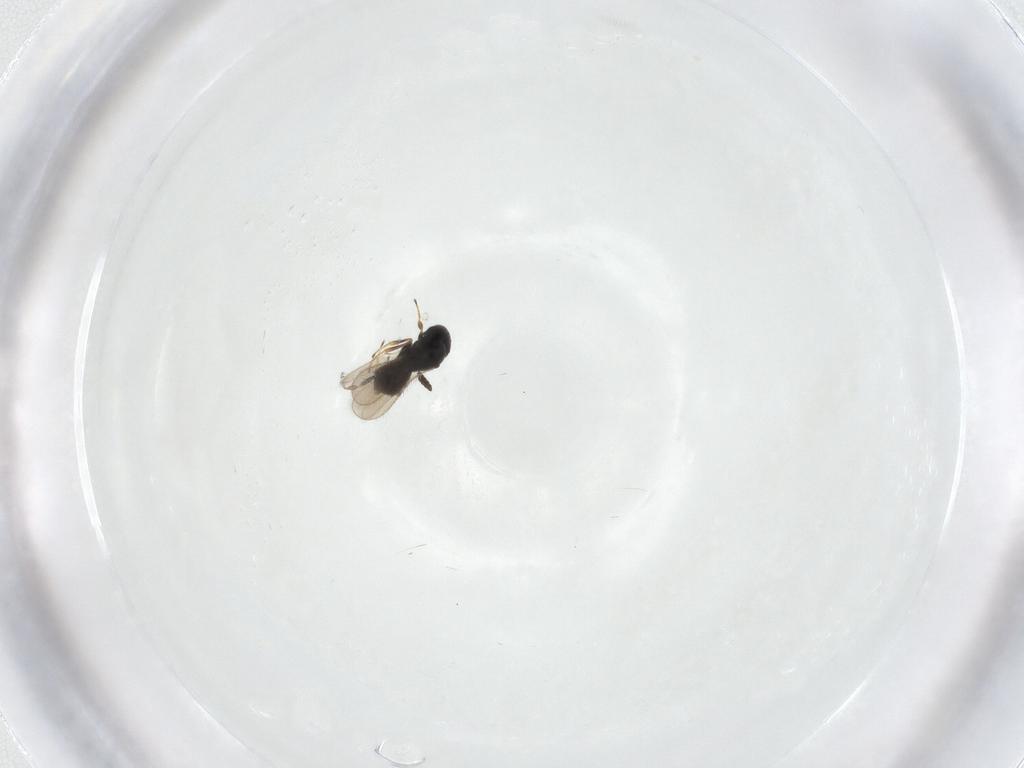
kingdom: Animalia
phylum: Arthropoda
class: Insecta
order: Hymenoptera
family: Scelionidae
